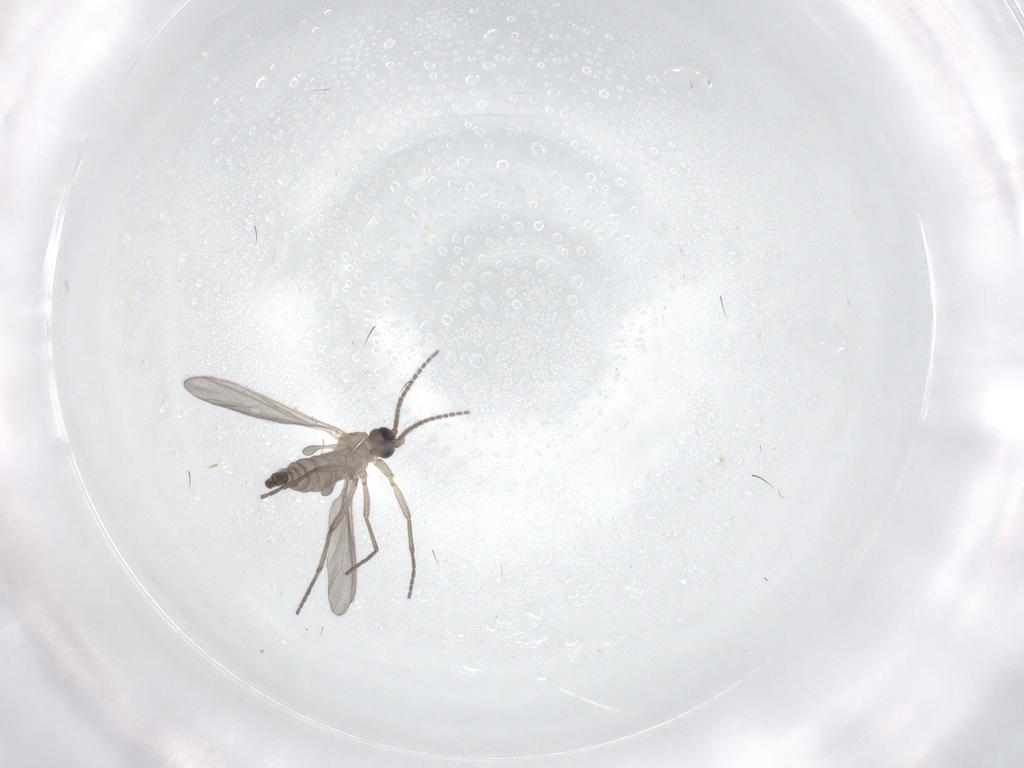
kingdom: Animalia
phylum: Arthropoda
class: Insecta
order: Diptera
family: Sciaridae
